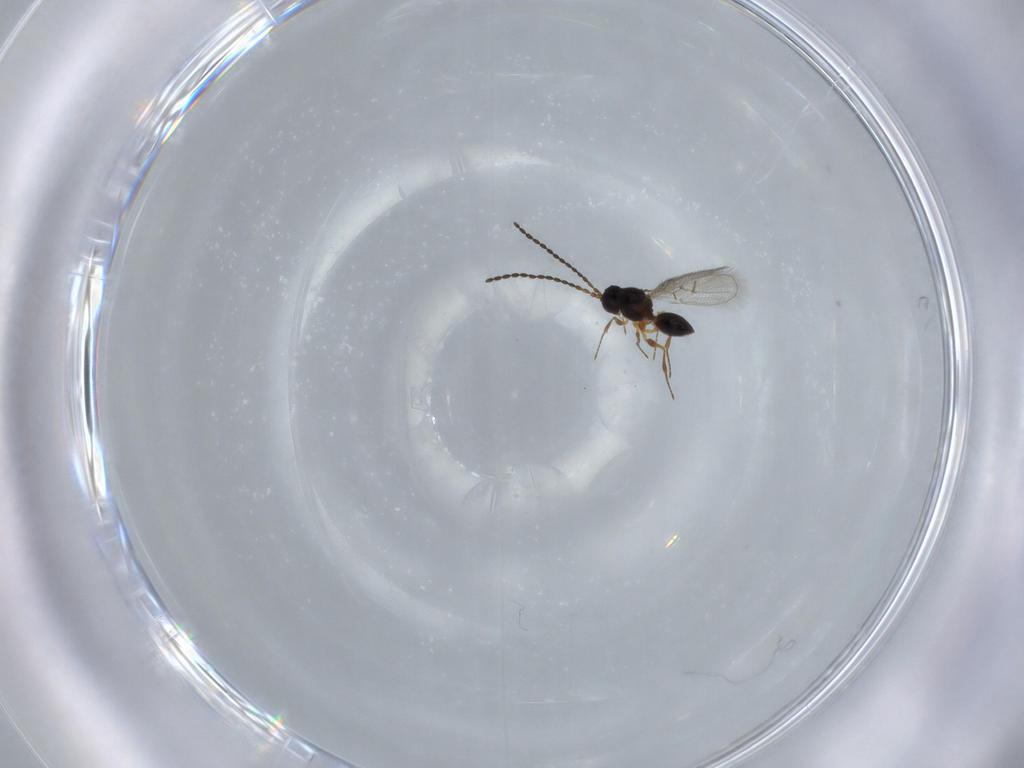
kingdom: Animalia
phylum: Arthropoda
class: Insecta
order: Hymenoptera
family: Figitidae
